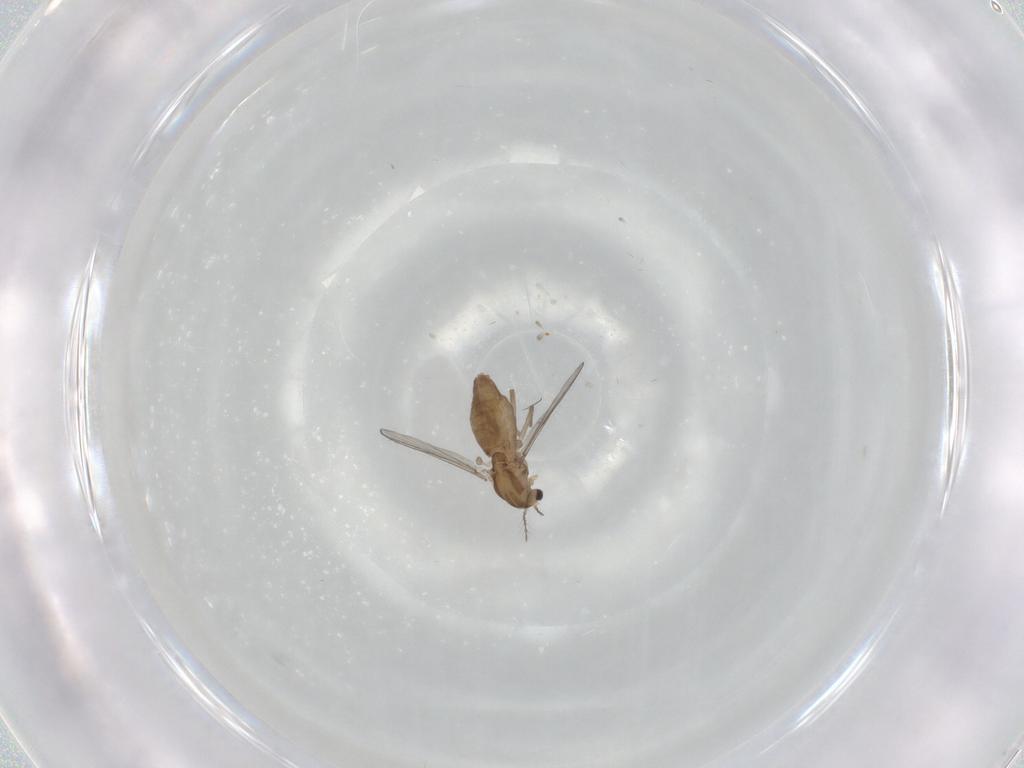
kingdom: Animalia
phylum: Arthropoda
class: Insecta
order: Diptera
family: Chironomidae
